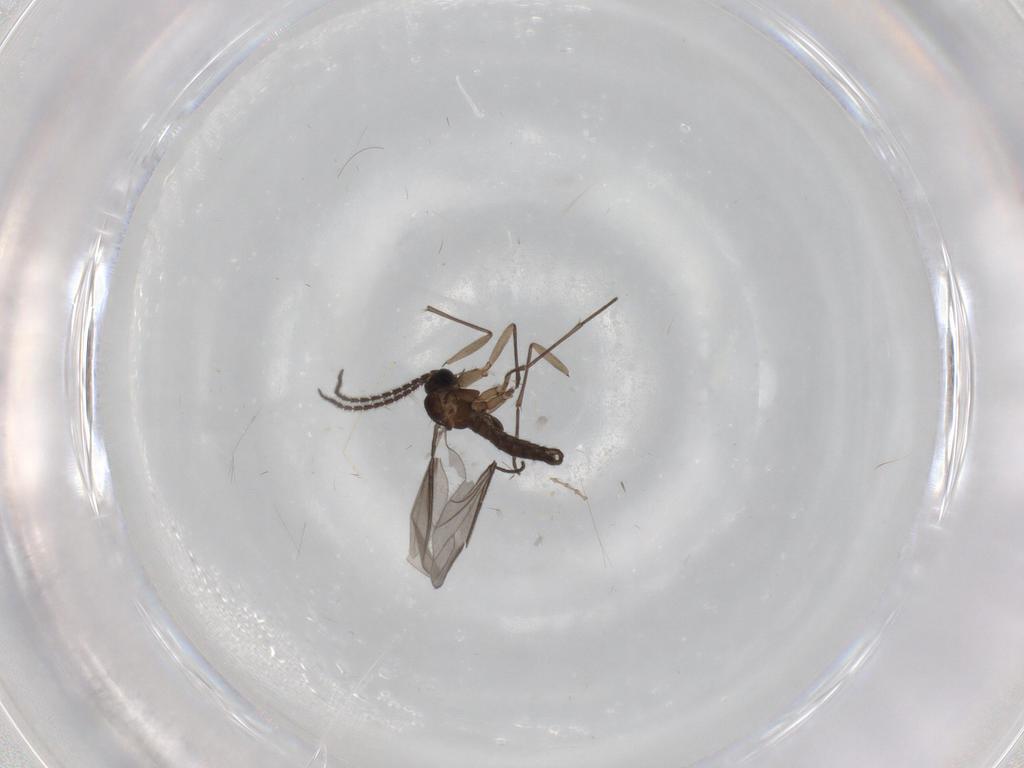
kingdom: Animalia
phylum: Arthropoda
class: Insecta
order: Diptera
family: Sciaridae
